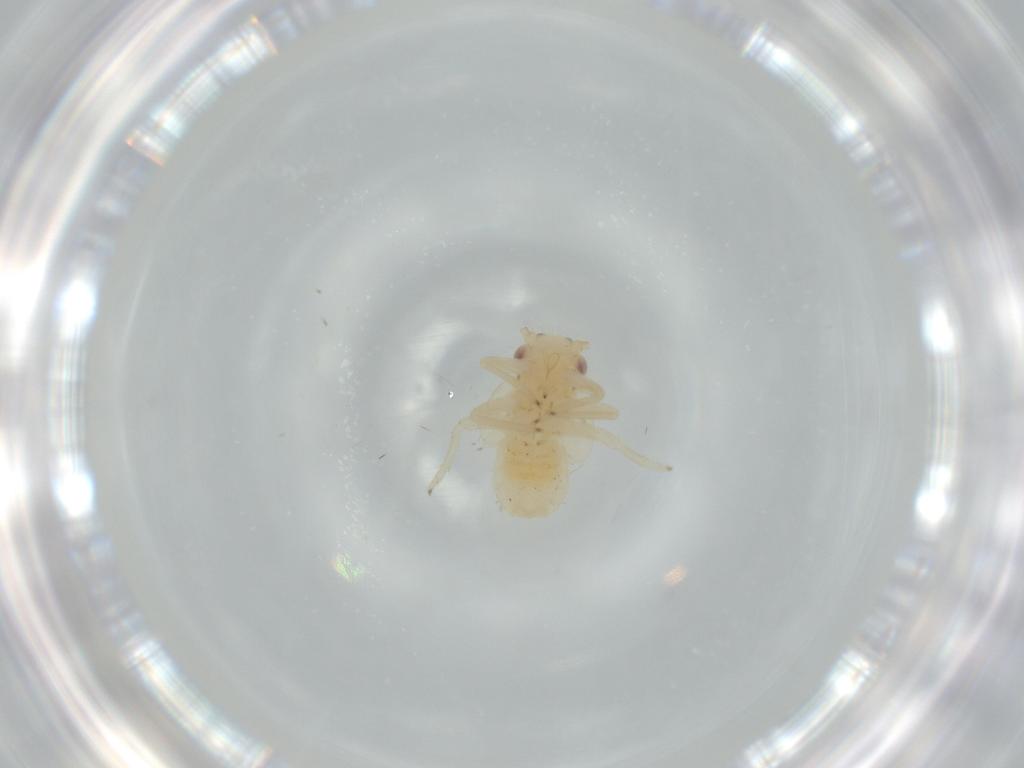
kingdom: Animalia
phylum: Arthropoda
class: Insecta
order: Hemiptera
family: Psyllidae
